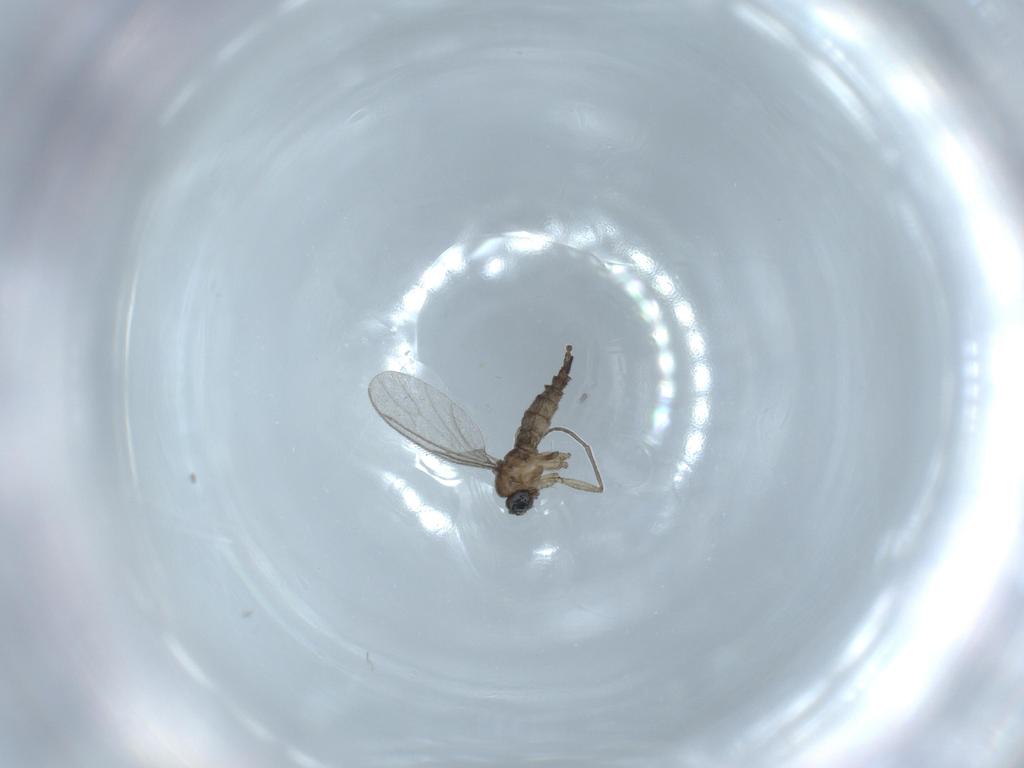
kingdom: Animalia
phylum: Arthropoda
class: Insecta
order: Diptera
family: Sciaridae
